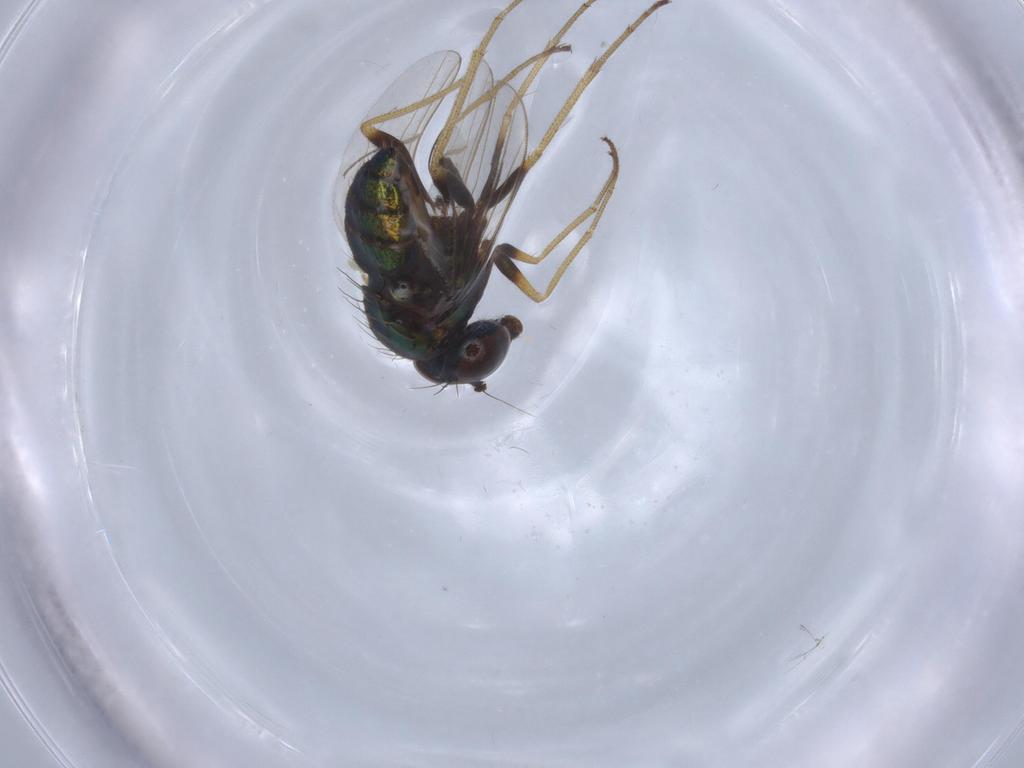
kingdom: Animalia
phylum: Arthropoda
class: Insecta
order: Diptera
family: Dolichopodidae
